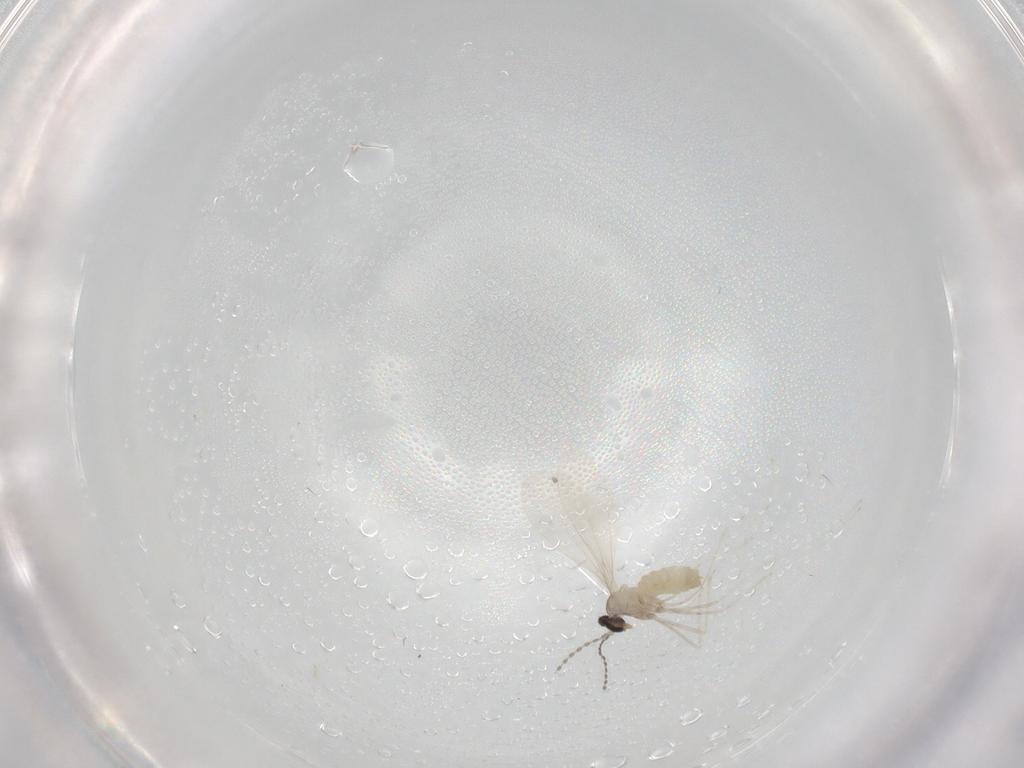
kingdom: Animalia
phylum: Arthropoda
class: Insecta
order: Diptera
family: Cecidomyiidae
